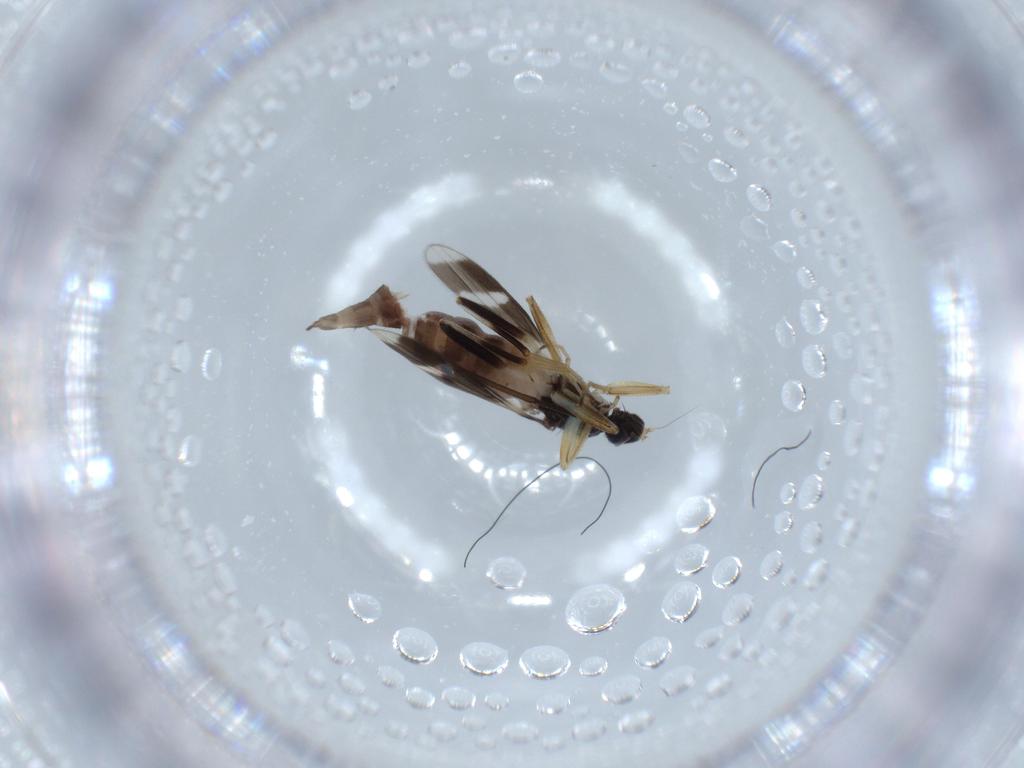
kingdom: Animalia
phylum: Arthropoda
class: Insecta
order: Diptera
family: Hybotidae
